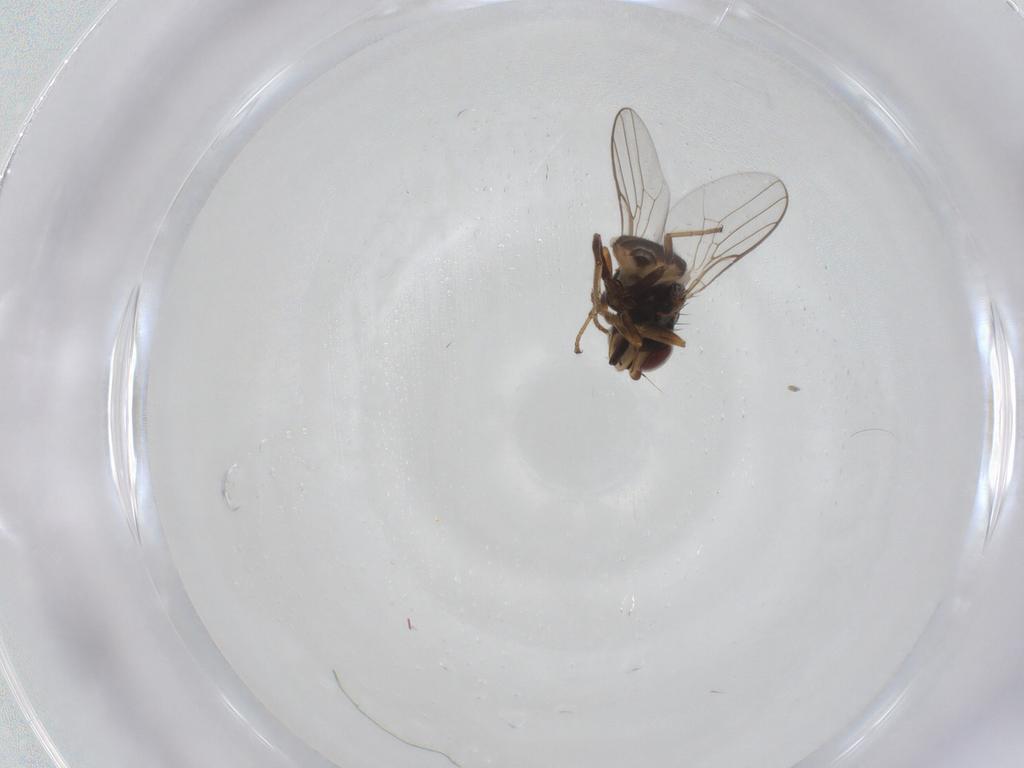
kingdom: Animalia
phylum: Arthropoda
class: Insecta
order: Diptera
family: Chloropidae
